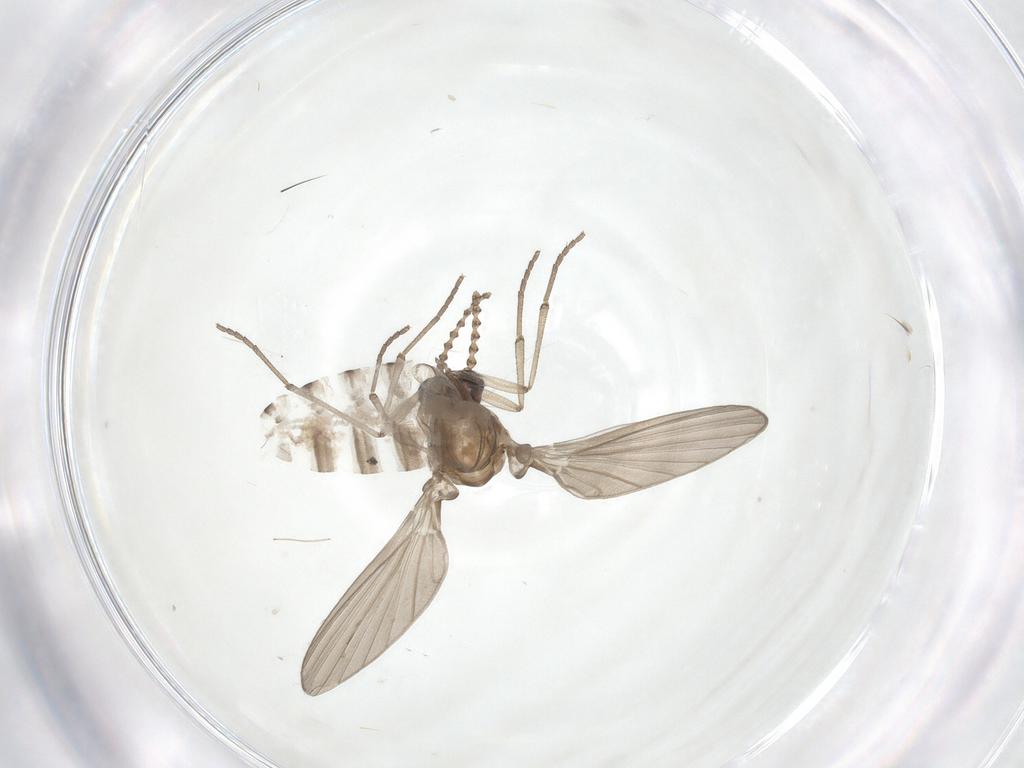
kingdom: Animalia
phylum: Arthropoda
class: Insecta
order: Diptera
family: Psychodidae
